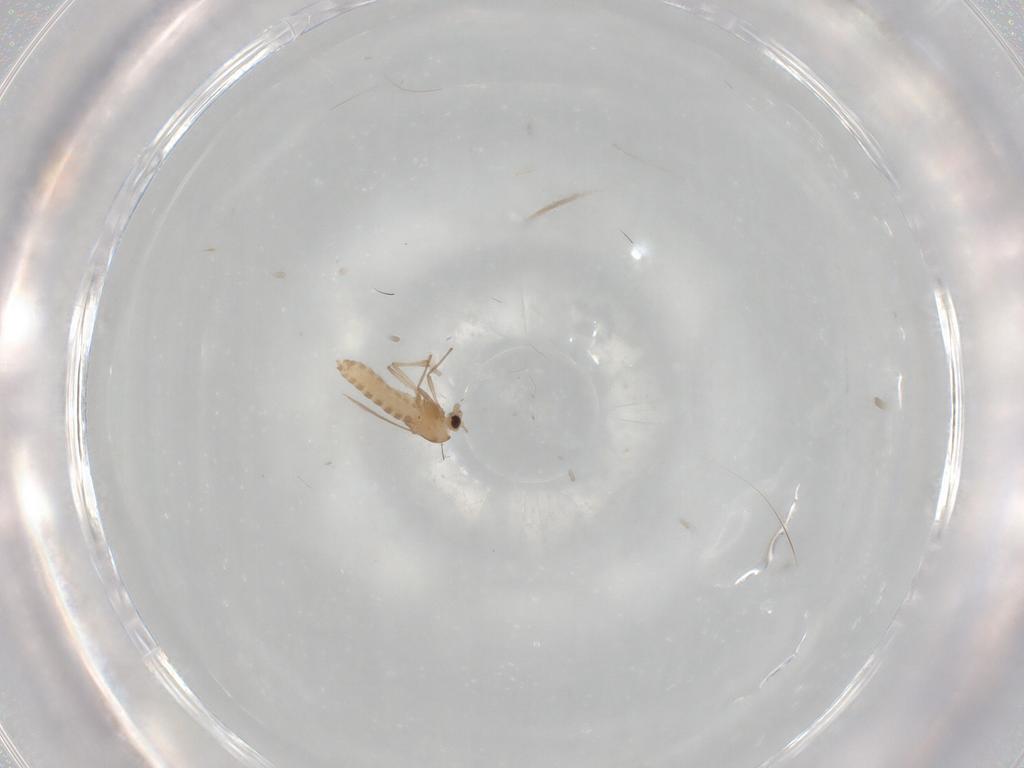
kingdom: Animalia
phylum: Arthropoda
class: Insecta
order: Diptera
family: Chironomidae
